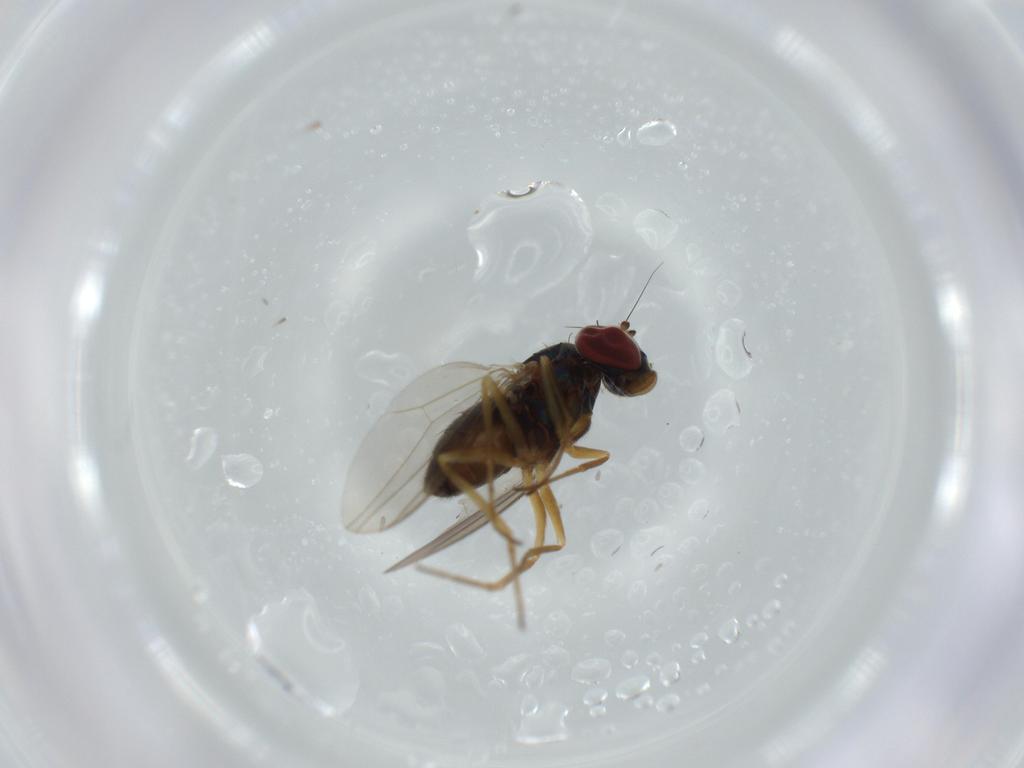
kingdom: Animalia
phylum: Arthropoda
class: Insecta
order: Diptera
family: Dolichopodidae
